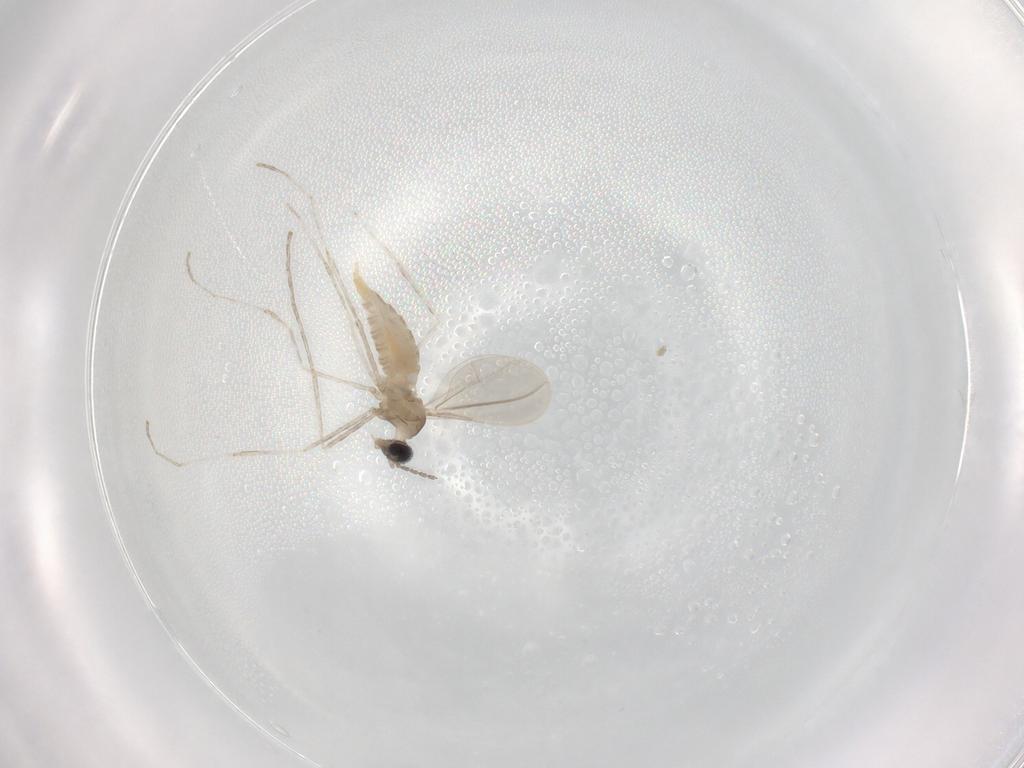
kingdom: Animalia
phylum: Arthropoda
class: Insecta
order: Diptera
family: Cecidomyiidae
